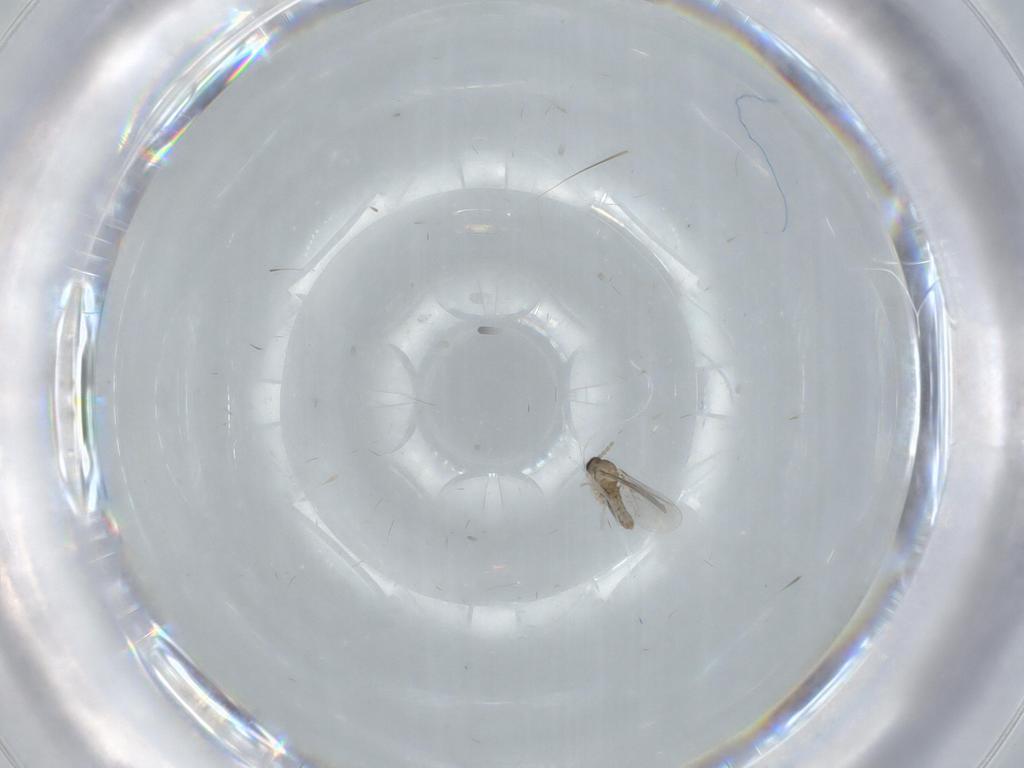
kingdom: Animalia
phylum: Arthropoda
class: Insecta
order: Diptera
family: Cecidomyiidae
